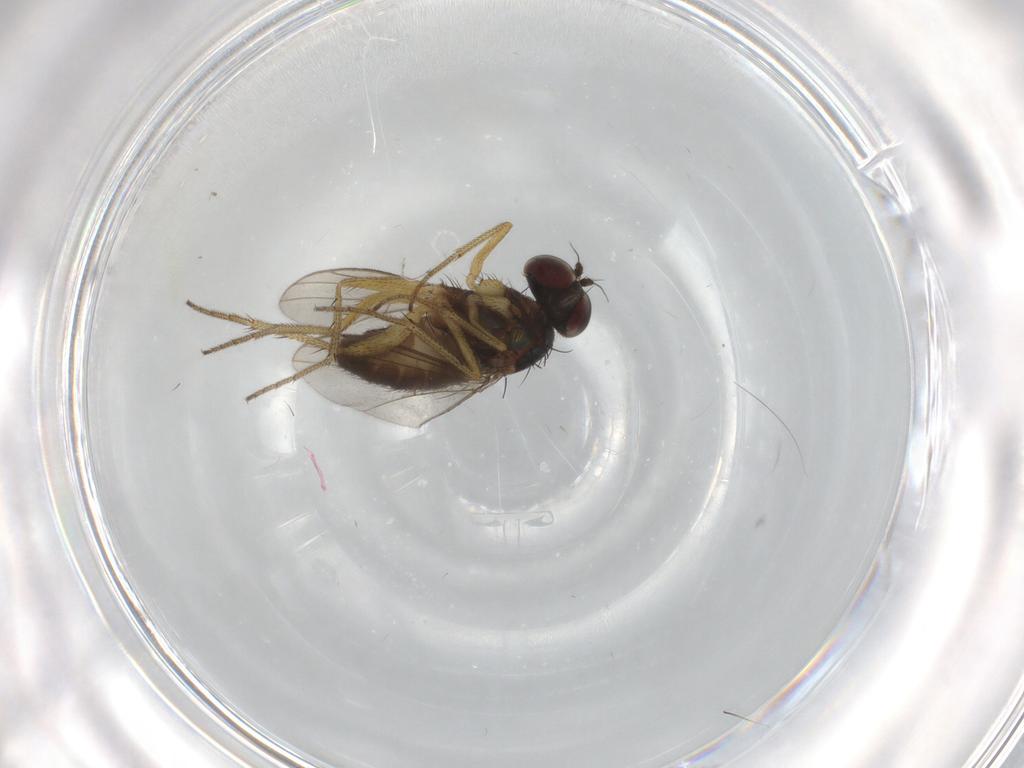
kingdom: Animalia
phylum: Arthropoda
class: Insecta
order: Diptera
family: Dolichopodidae
